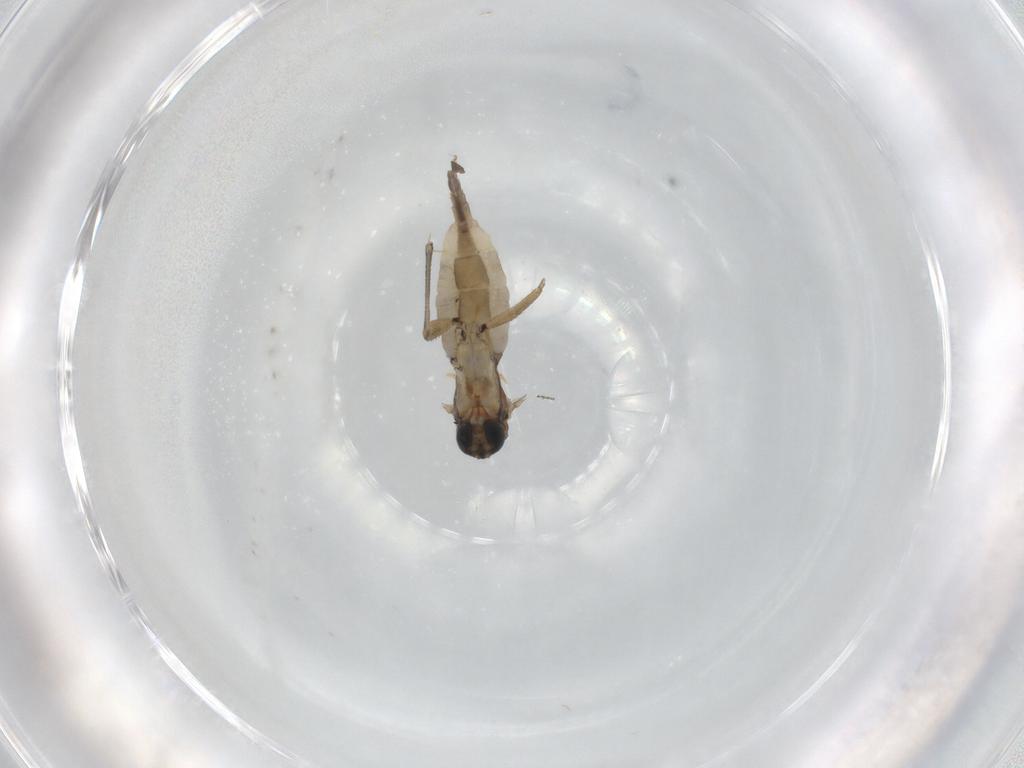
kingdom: Animalia
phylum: Arthropoda
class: Insecta
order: Diptera
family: Sciaridae
